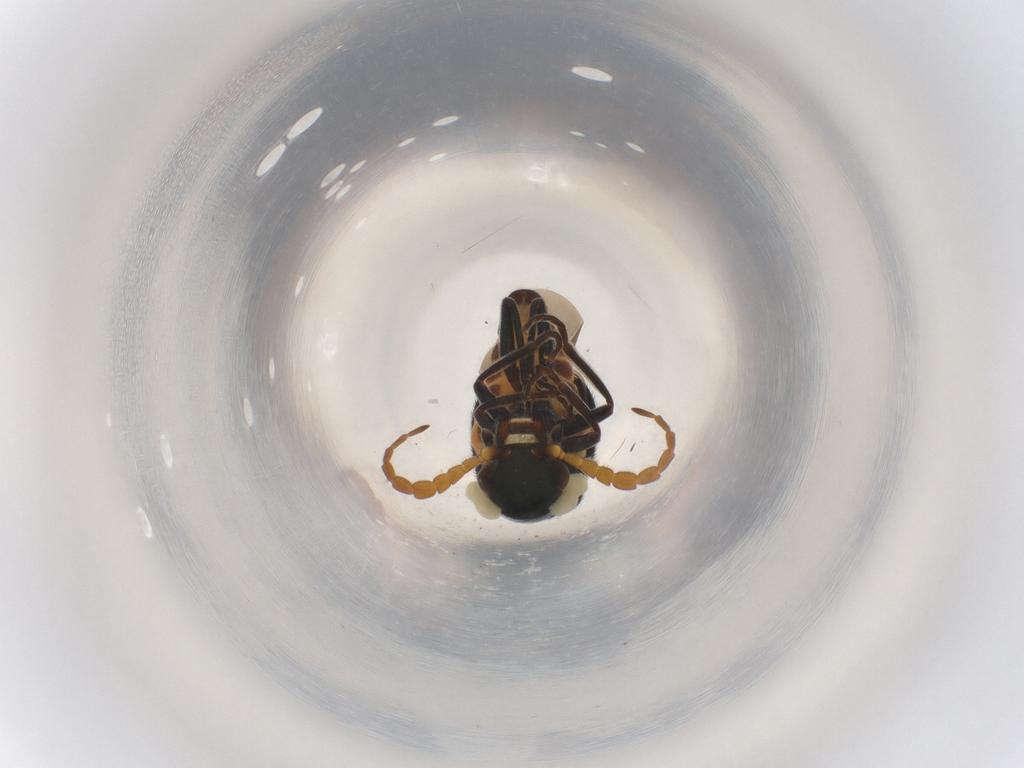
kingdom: Animalia
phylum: Arthropoda
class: Insecta
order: Coleoptera
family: Melyridae
